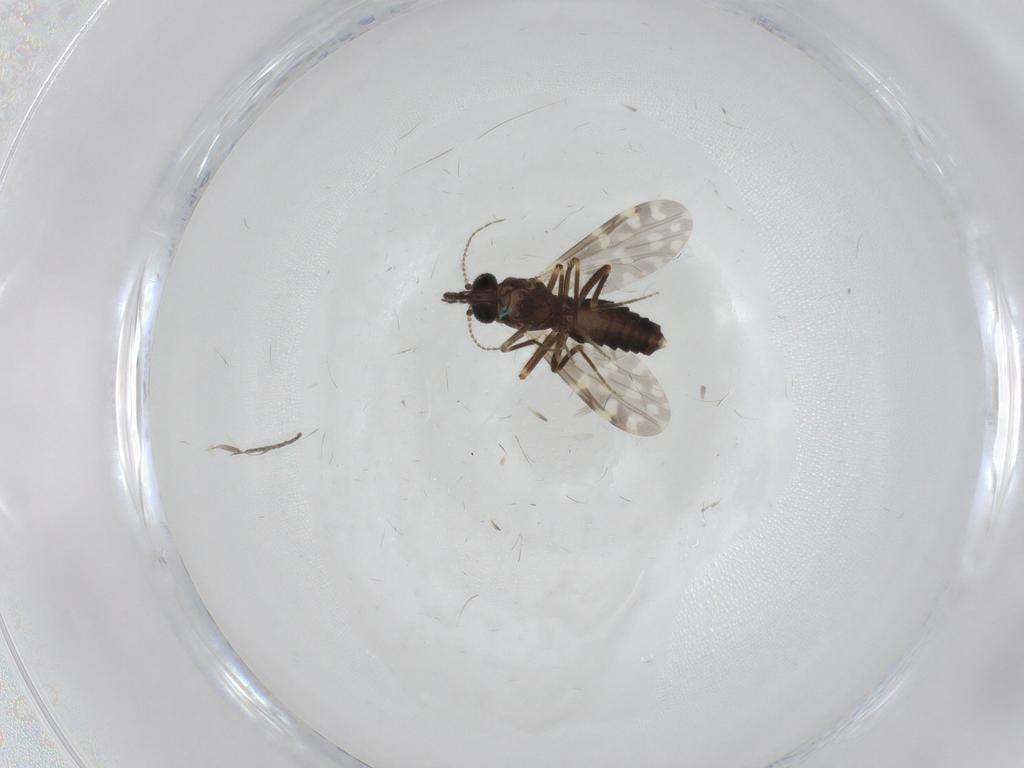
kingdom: Animalia
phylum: Arthropoda
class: Insecta
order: Diptera
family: Ceratopogonidae
